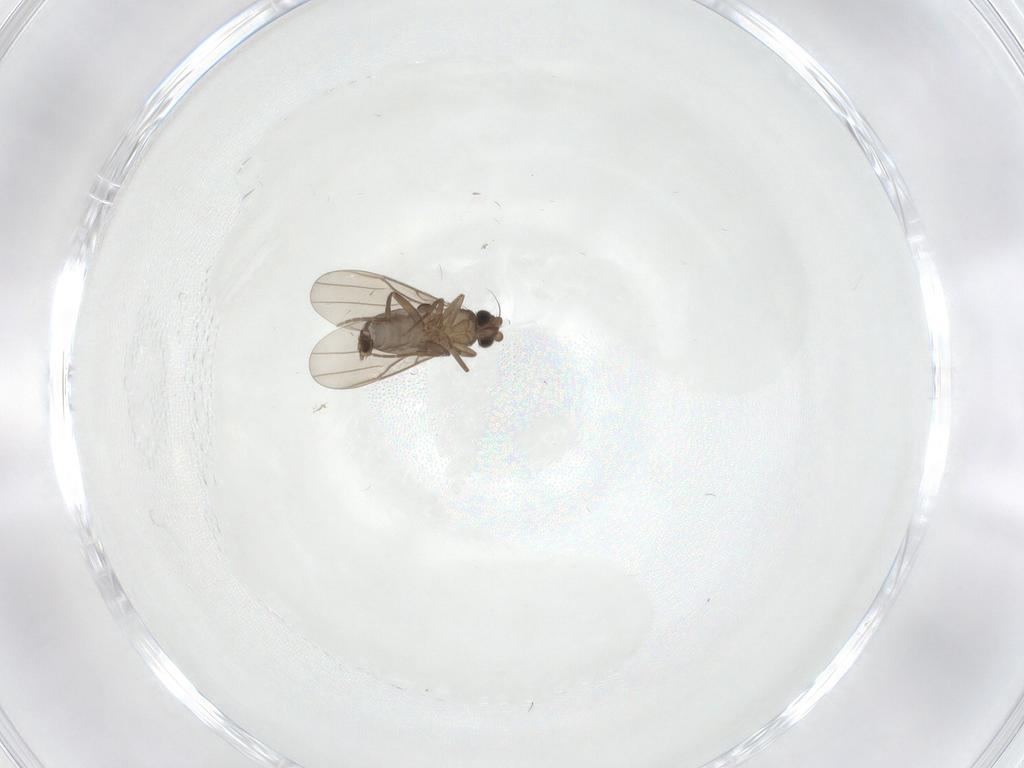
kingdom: Animalia
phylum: Arthropoda
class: Insecta
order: Diptera
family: Phoridae
